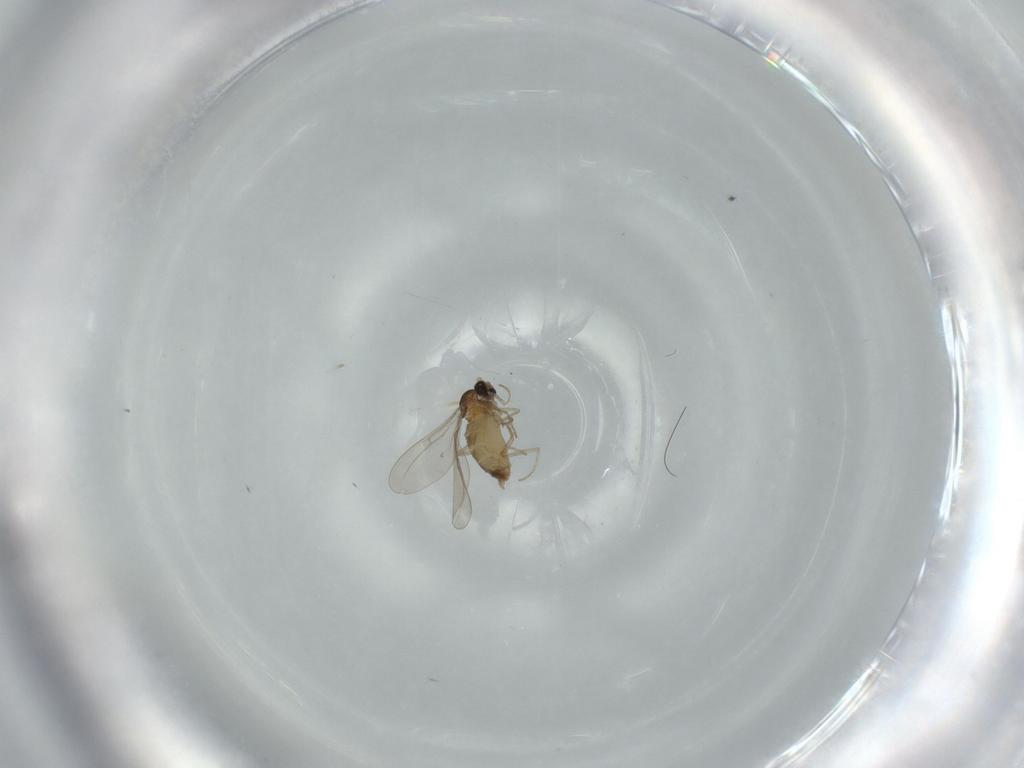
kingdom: Animalia
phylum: Arthropoda
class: Insecta
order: Diptera
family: Cecidomyiidae
